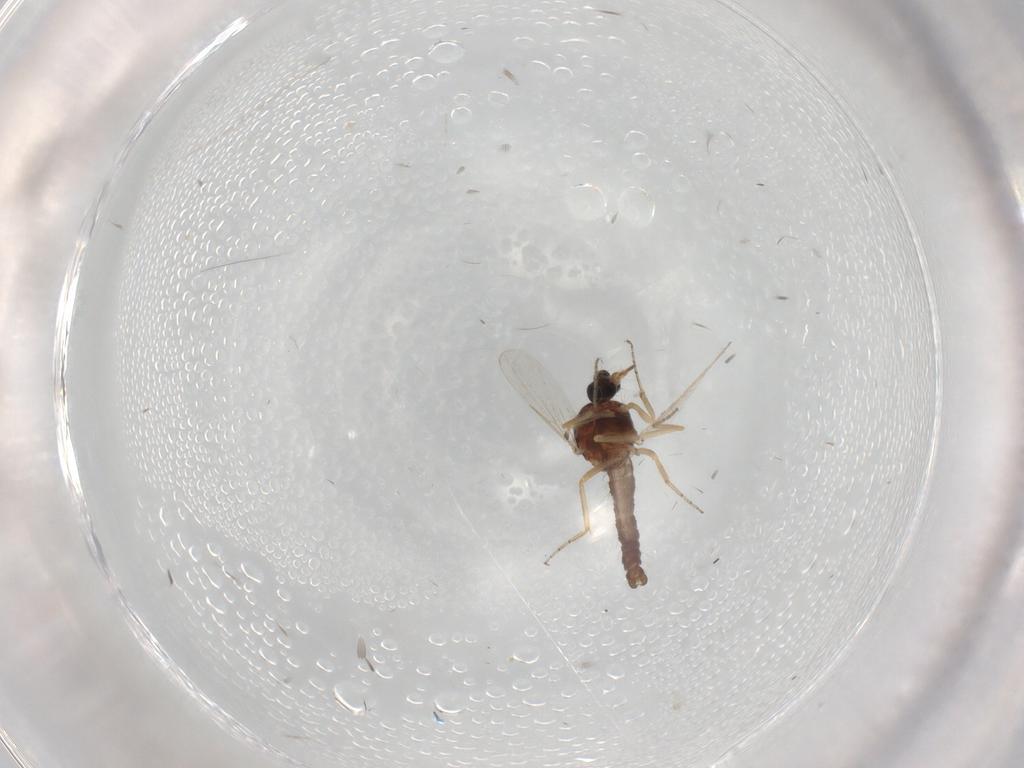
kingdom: Animalia
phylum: Arthropoda
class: Insecta
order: Diptera
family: Ceratopogonidae
